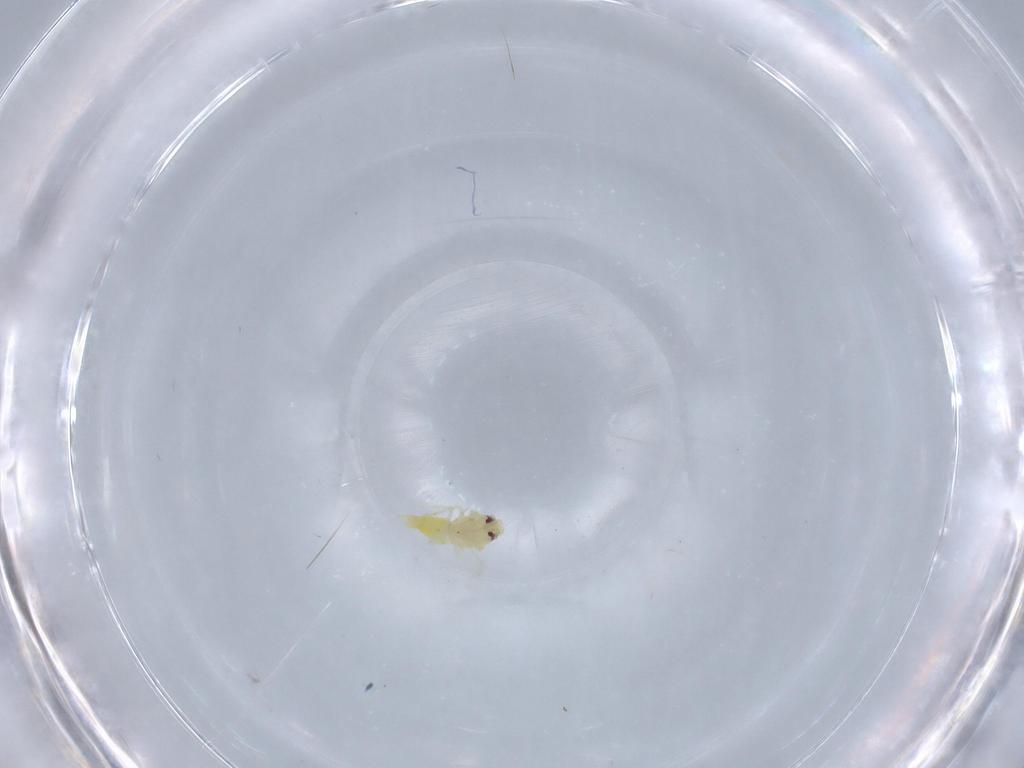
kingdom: Animalia
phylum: Arthropoda
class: Insecta
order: Hemiptera
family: Aleyrodidae
